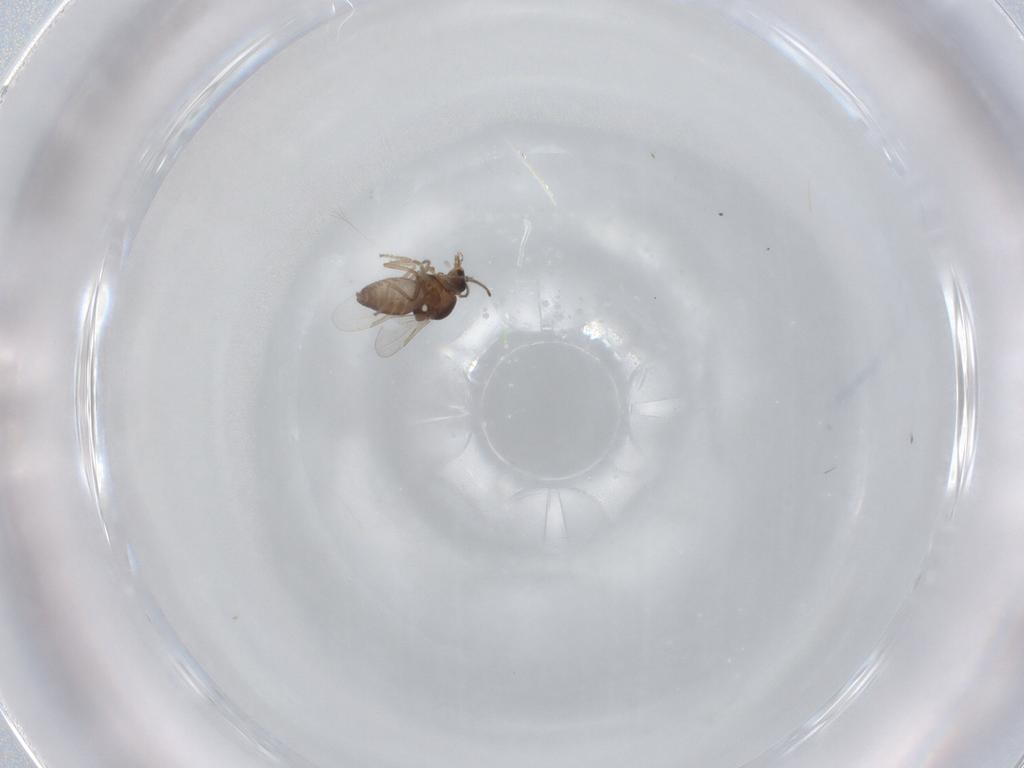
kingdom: Animalia
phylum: Arthropoda
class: Insecta
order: Diptera
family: Ceratopogonidae
